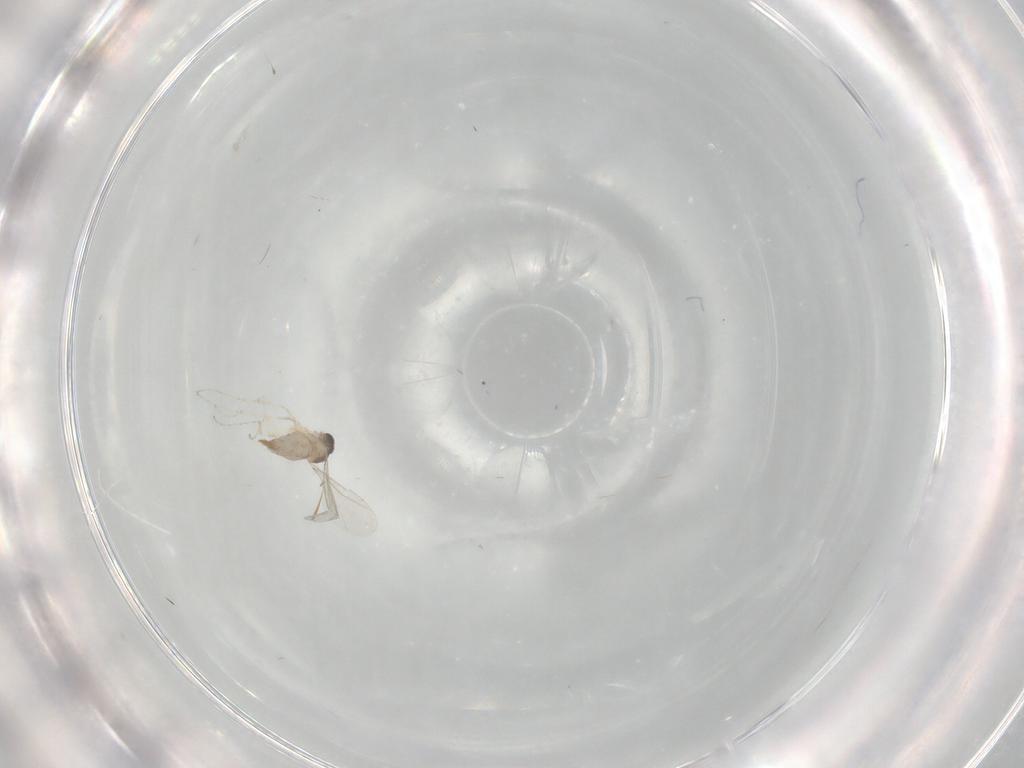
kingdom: Animalia
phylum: Arthropoda
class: Insecta
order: Diptera
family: Cecidomyiidae
